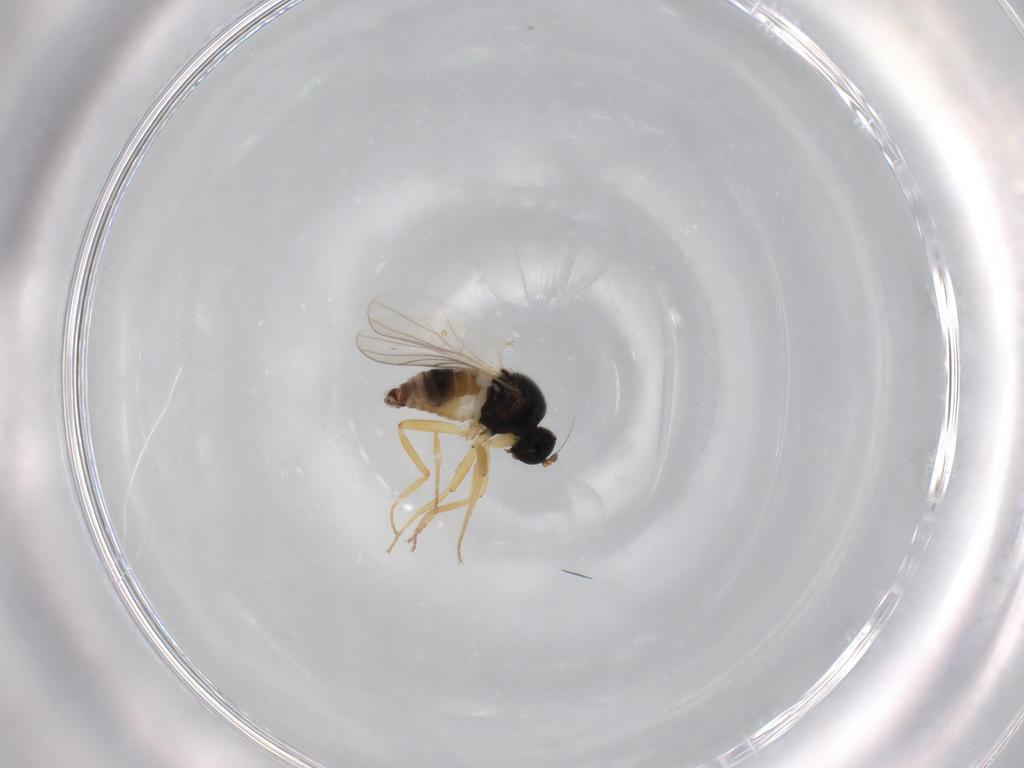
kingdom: Animalia
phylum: Arthropoda
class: Insecta
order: Diptera
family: Hybotidae
